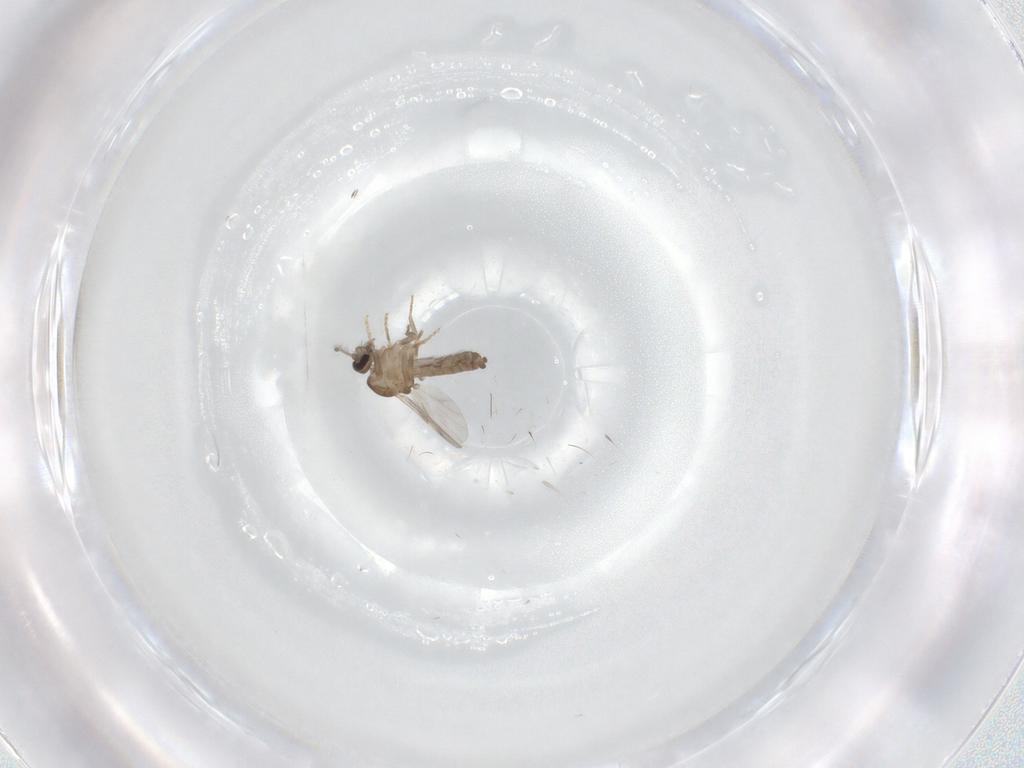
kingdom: Animalia
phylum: Arthropoda
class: Insecta
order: Diptera
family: Ceratopogonidae
